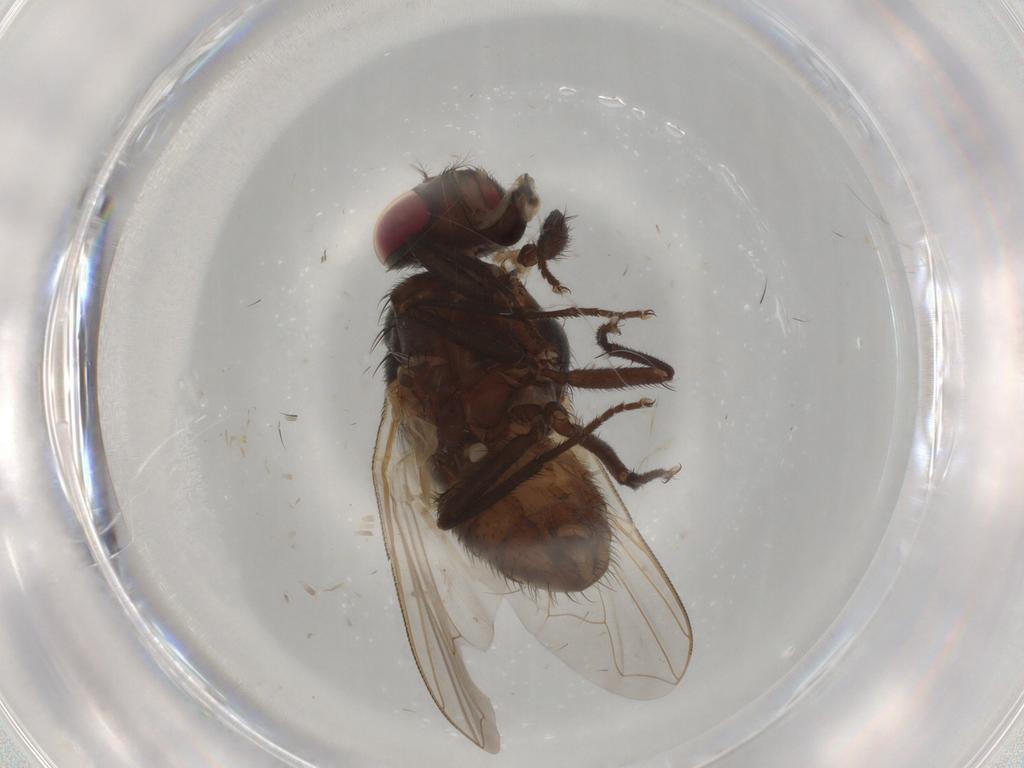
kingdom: Animalia
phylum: Arthropoda
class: Insecta
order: Diptera
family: Muscidae
